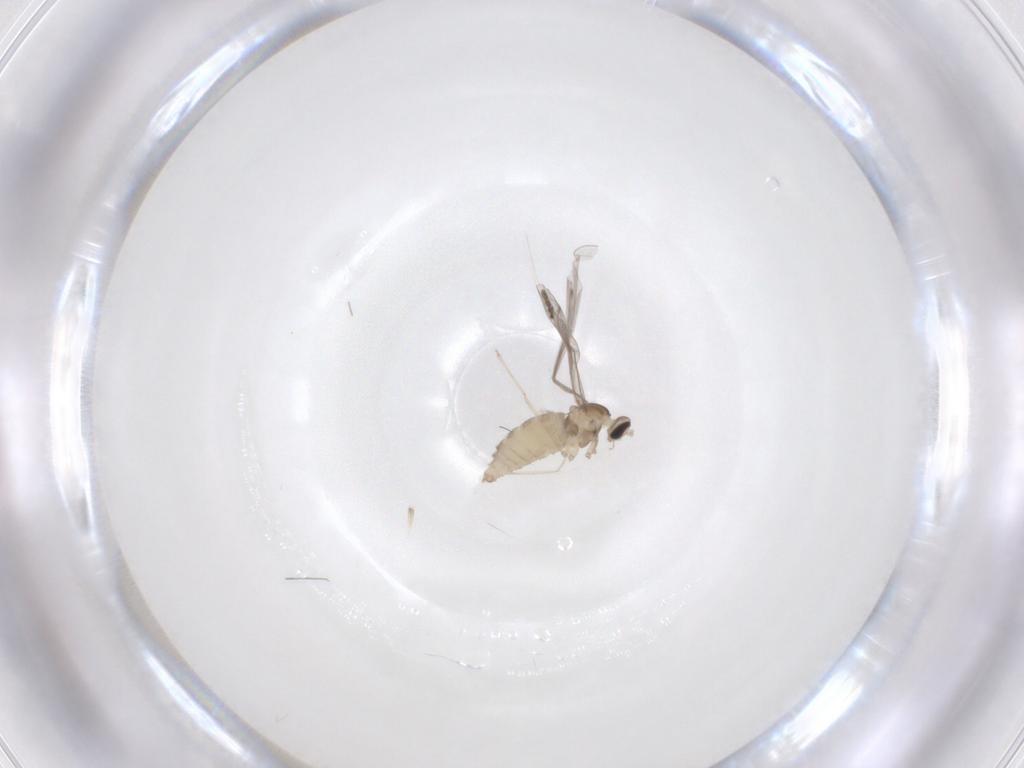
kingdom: Animalia
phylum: Arthropoda
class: Insecta
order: Diptera
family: Cecidomyiidae
